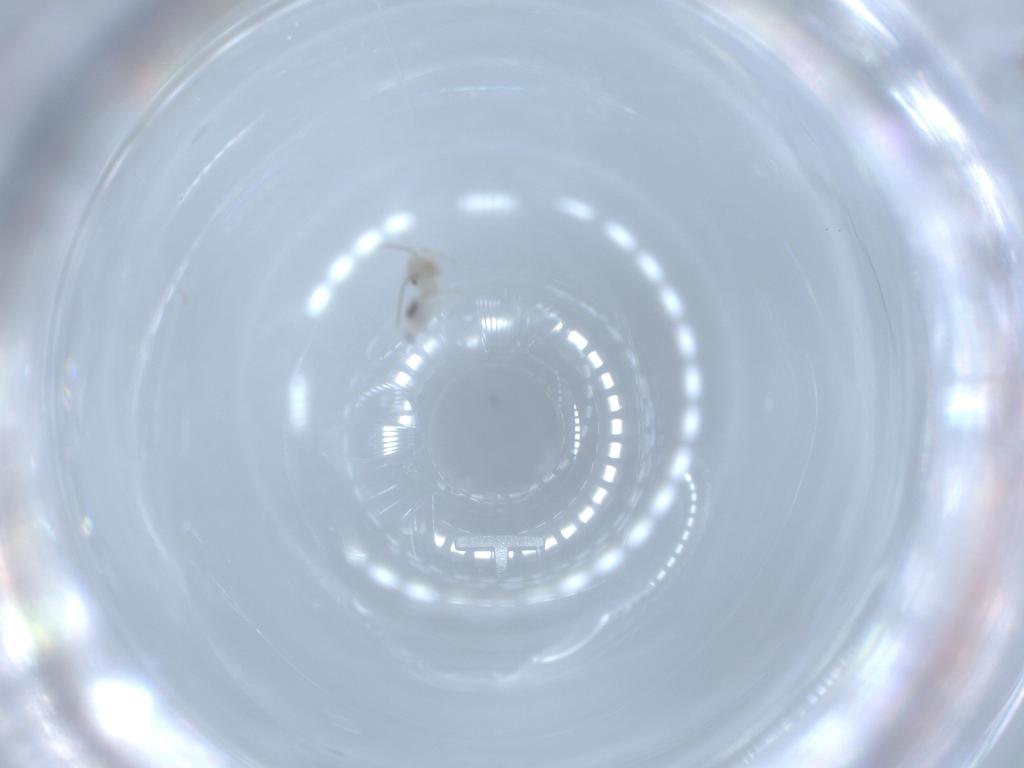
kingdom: Animalia
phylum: Arthropoda
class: Insecta
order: Psocodea
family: Caeciliusidae
